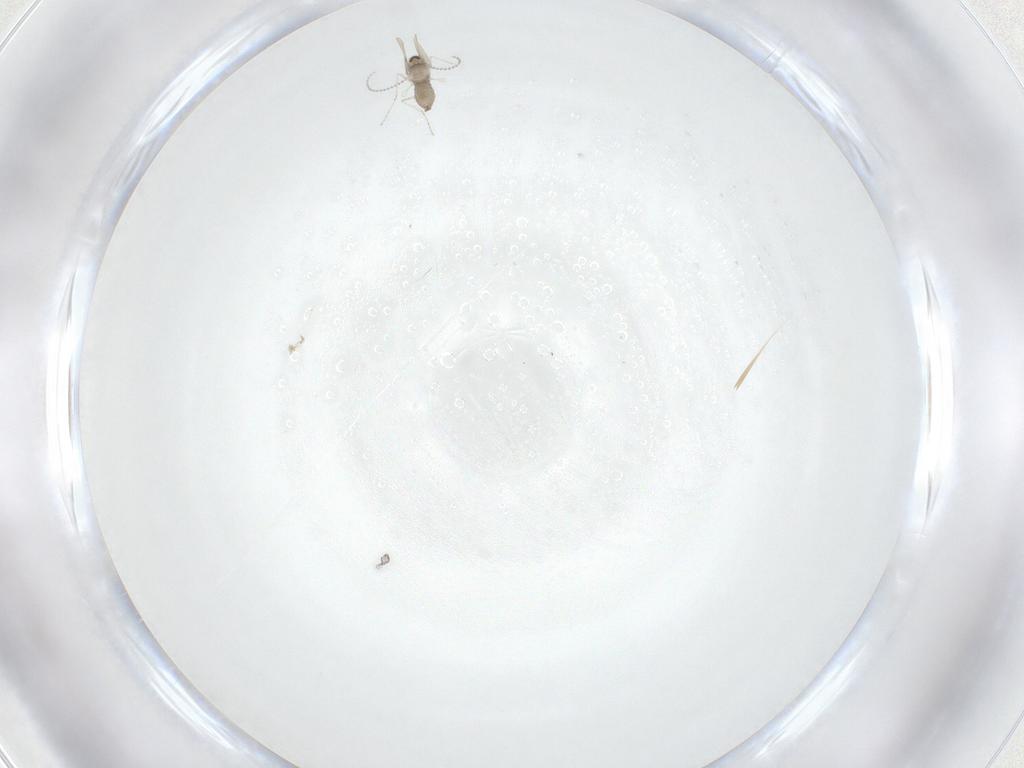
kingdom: Animalia
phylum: Arthropoda
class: Insecta
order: Diptera
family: Cecidomyiidae
